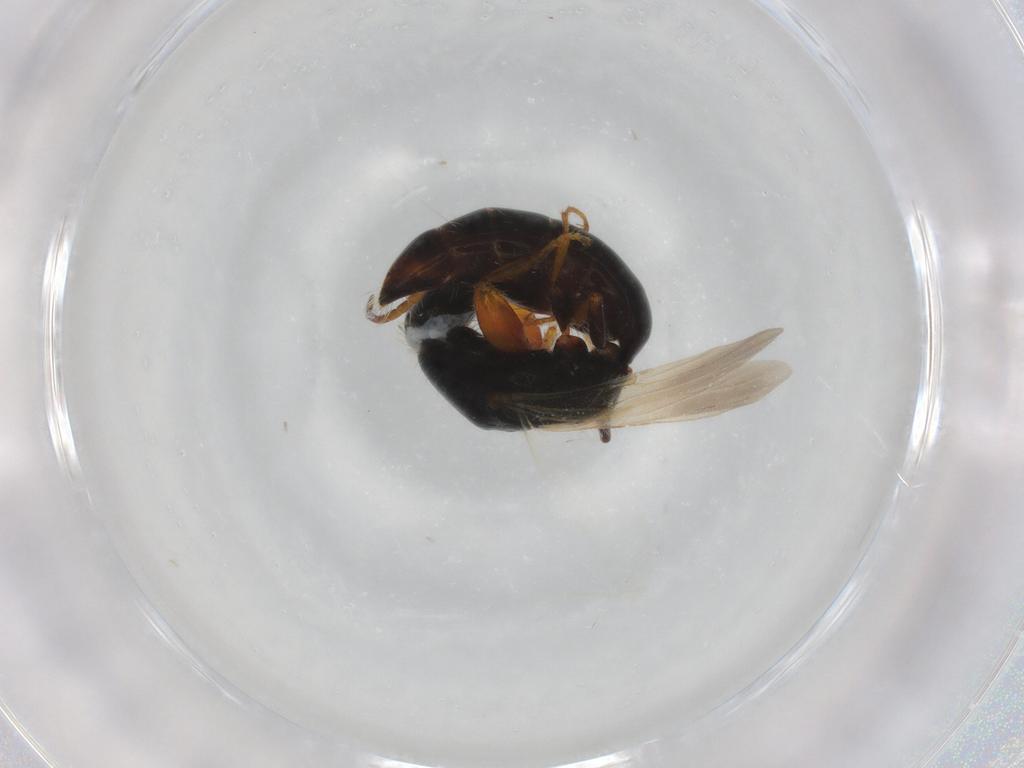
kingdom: Animalia
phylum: Arthropoda
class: Insecta
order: Hymenoptera
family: Bethylidae
